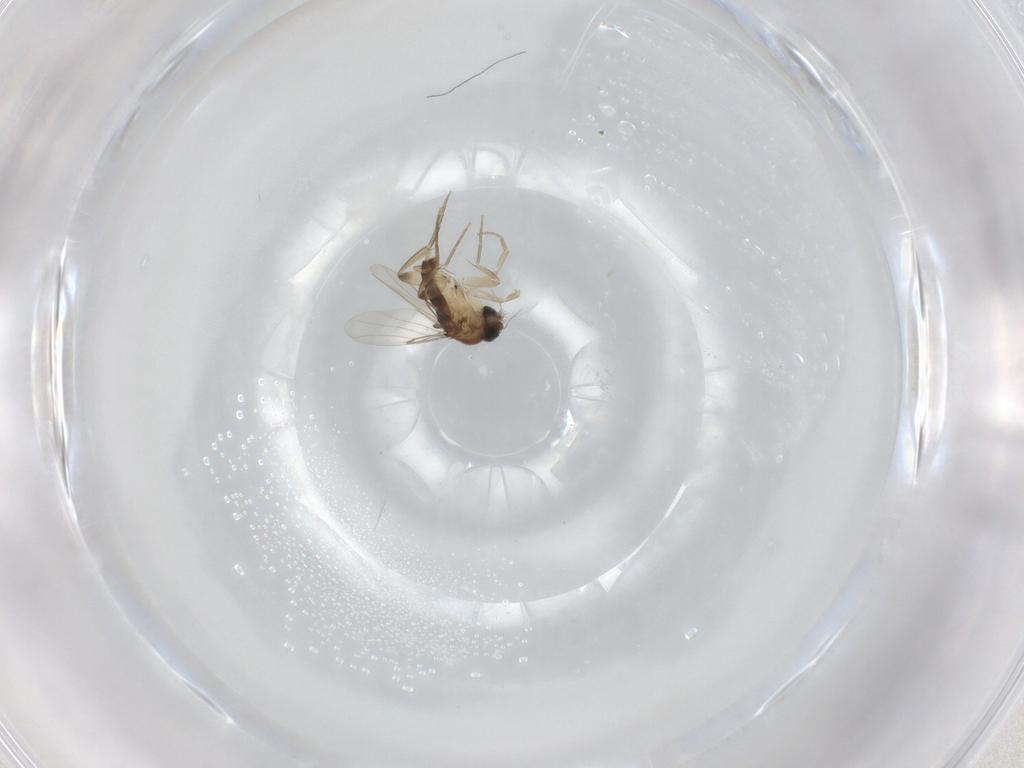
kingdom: Animalia
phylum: Arthropoda
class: Insecta
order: Diptera
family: Phoridae
